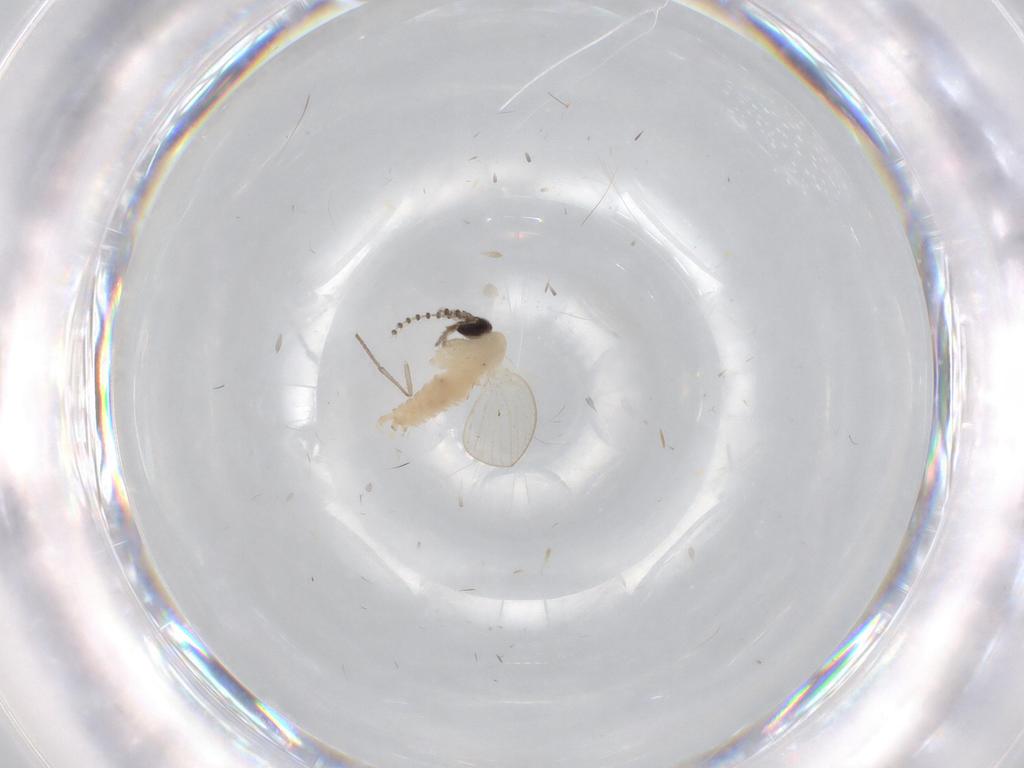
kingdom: Animalia
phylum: Arthropoda
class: Insecta
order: Diptera
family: Psychodidae
